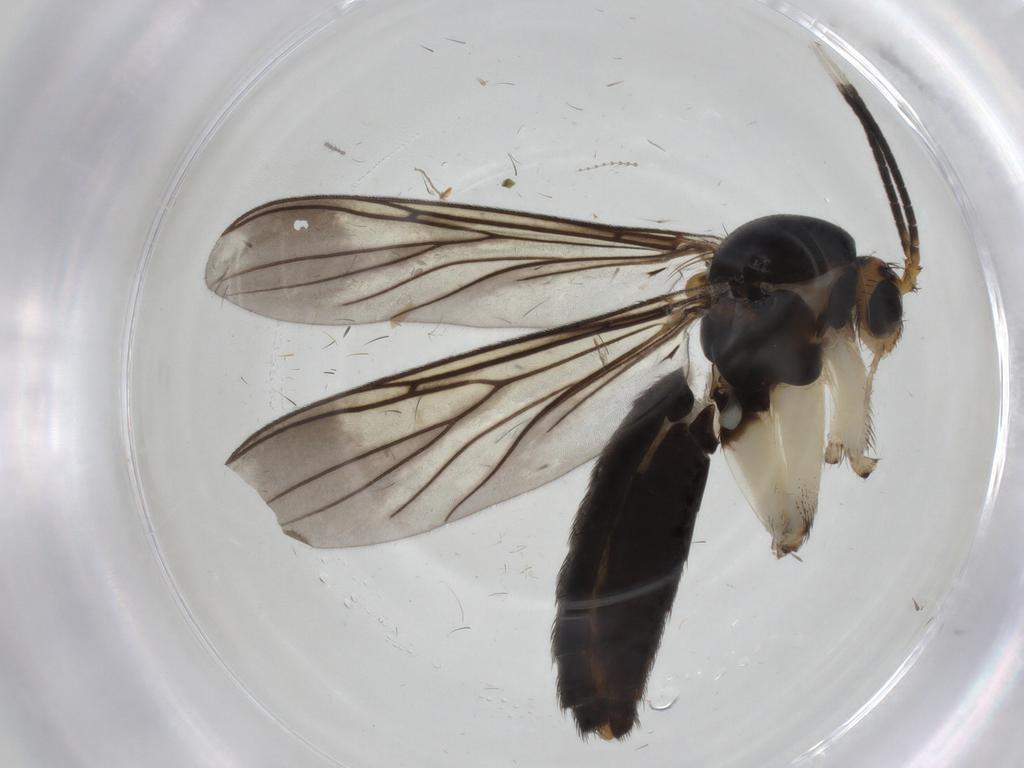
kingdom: Animalia
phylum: Arthropoda
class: Insecta
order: Diptera
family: Mycetophilidae
